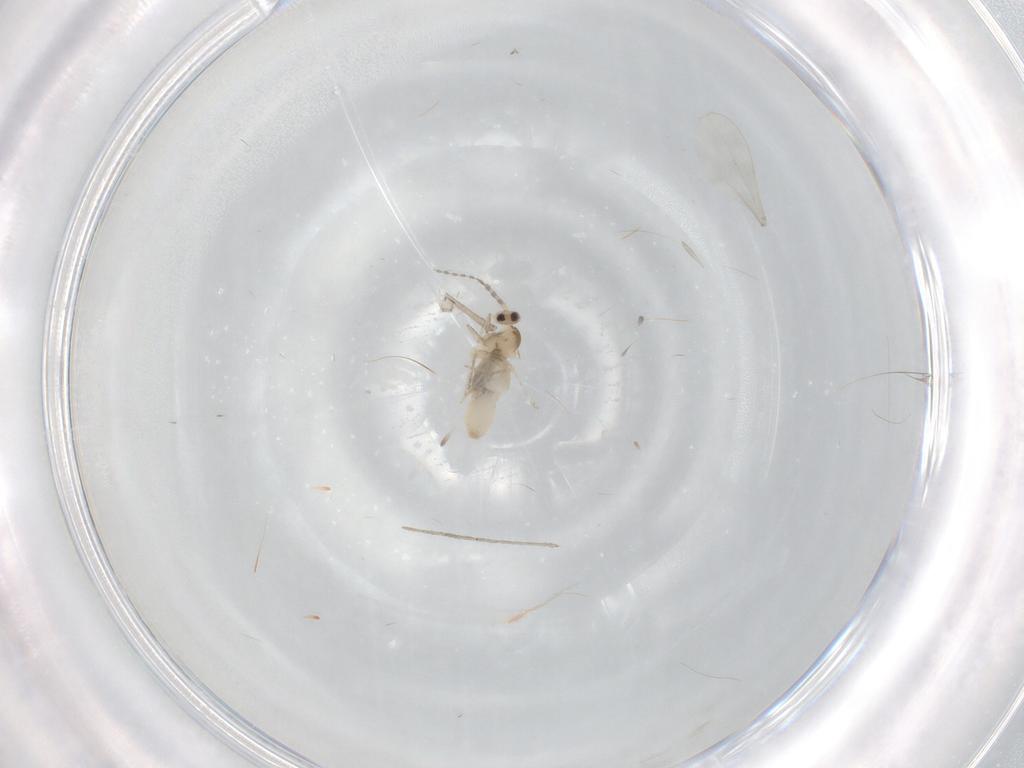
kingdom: Animalia
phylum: Arthropoda
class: Insecta
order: Diptera
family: Cecidomyiidae
